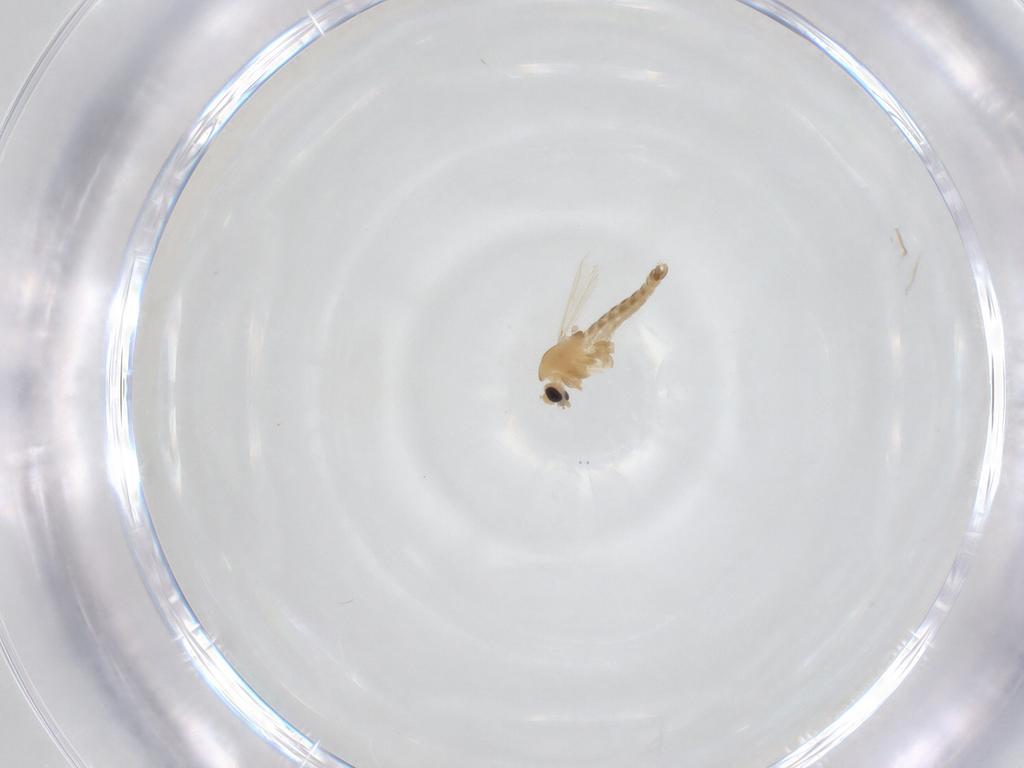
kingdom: Animalia
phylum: Arthropoda
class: Insecta
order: Diptera
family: Chironomidae
